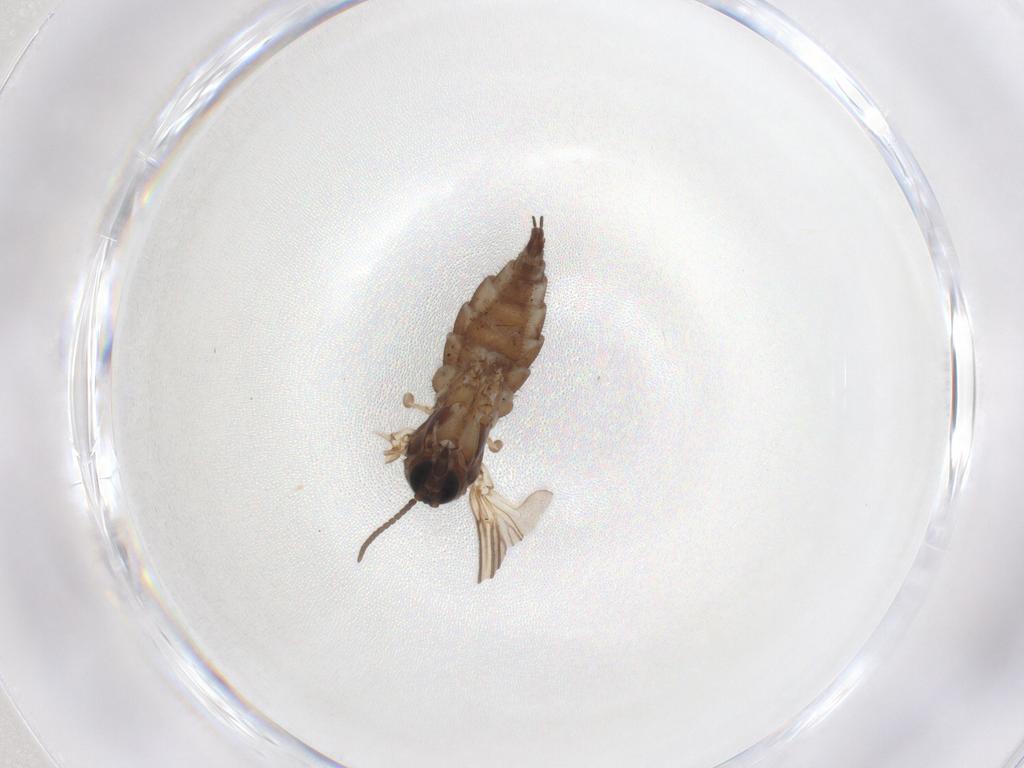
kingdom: Animalia
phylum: Arthropoda
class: Insecta
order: Diptera
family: Sciaridae
